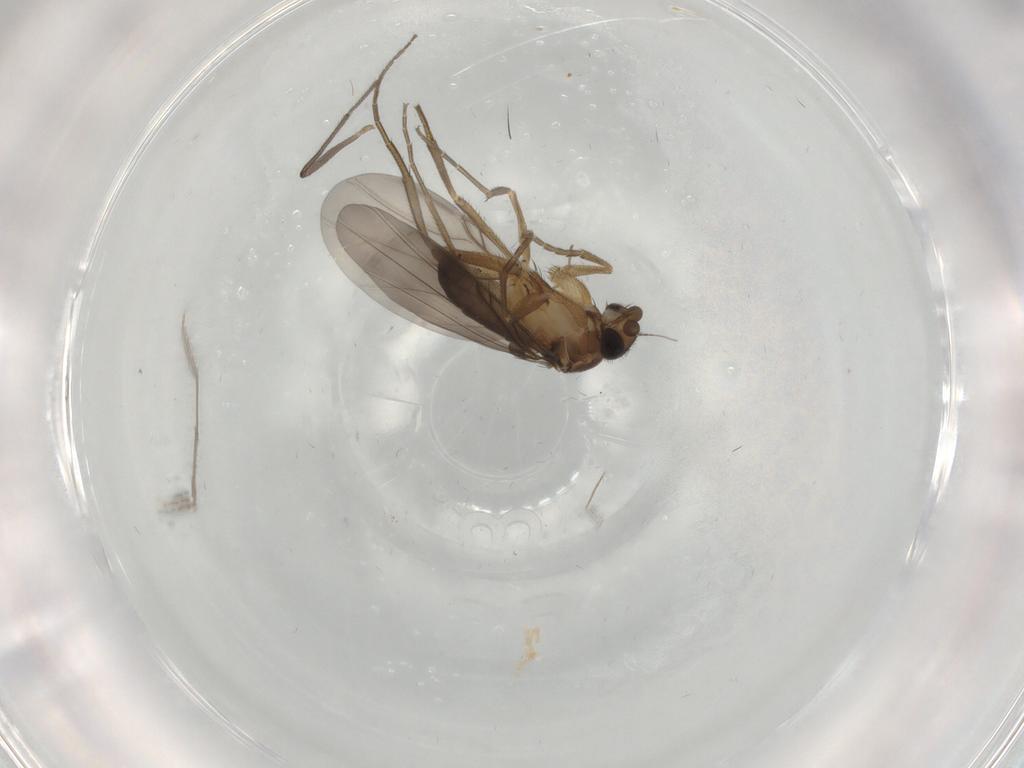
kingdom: Animalia
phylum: Arthropoda
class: Insecta
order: Diptera
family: Phoridae
